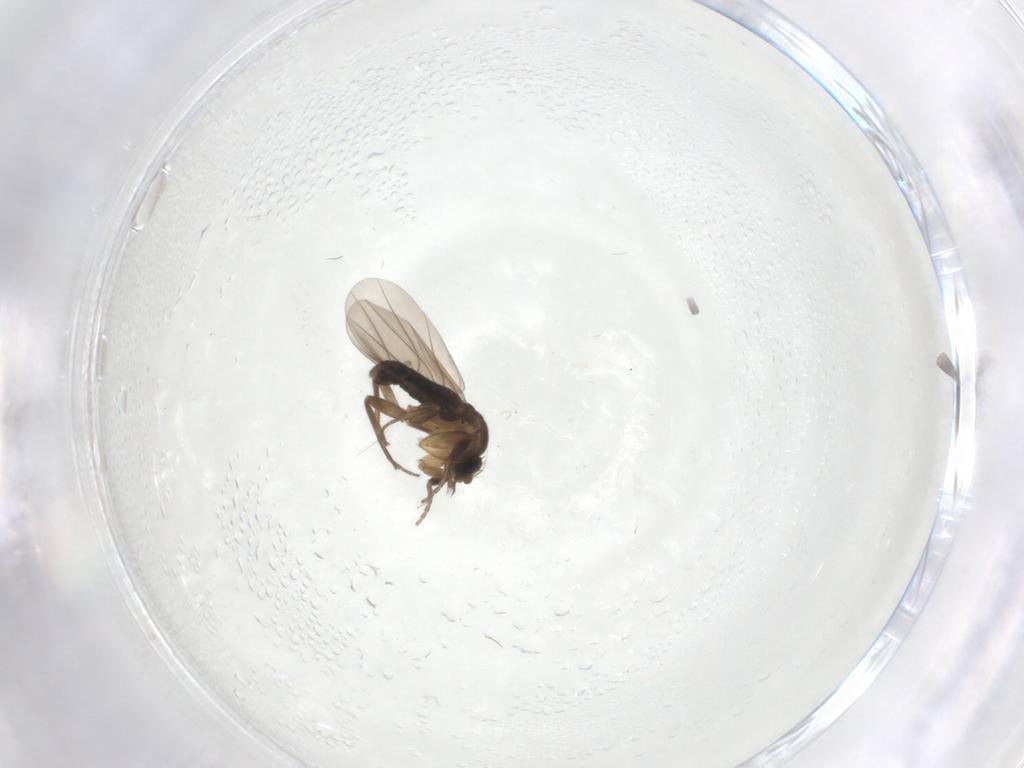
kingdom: Animalia
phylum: Arthropoda
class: Insecta
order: Diptera
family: Phoridae
